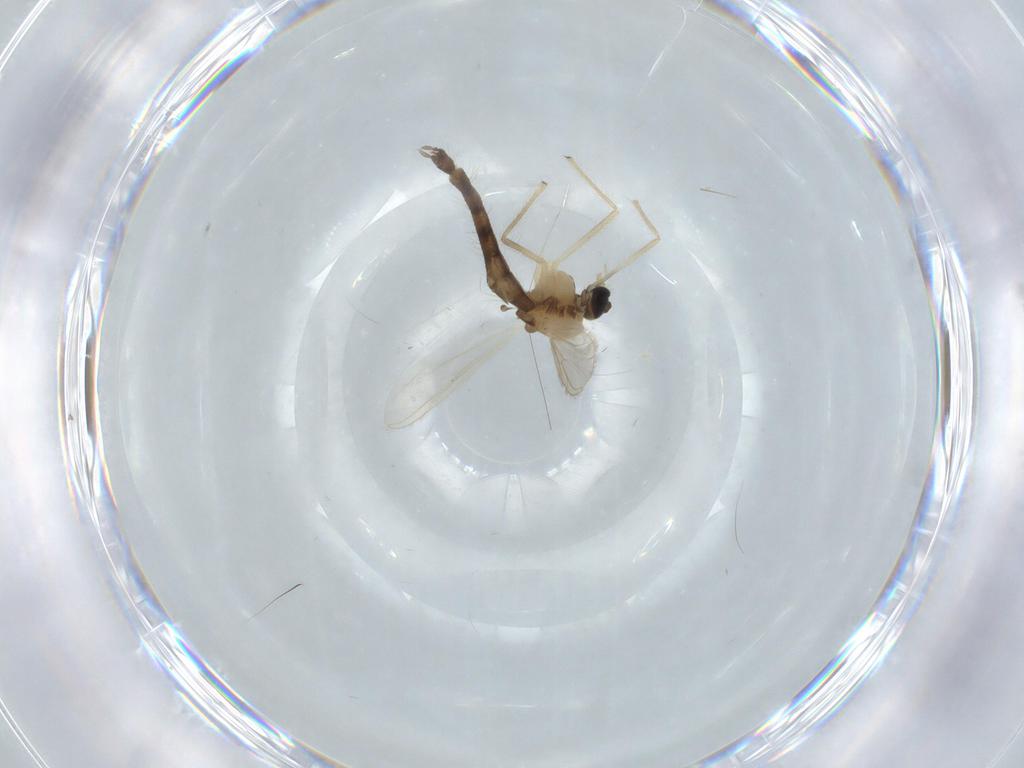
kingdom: Animalia
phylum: Arthropoda
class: Insecta
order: Diptera
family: Chironomidae
